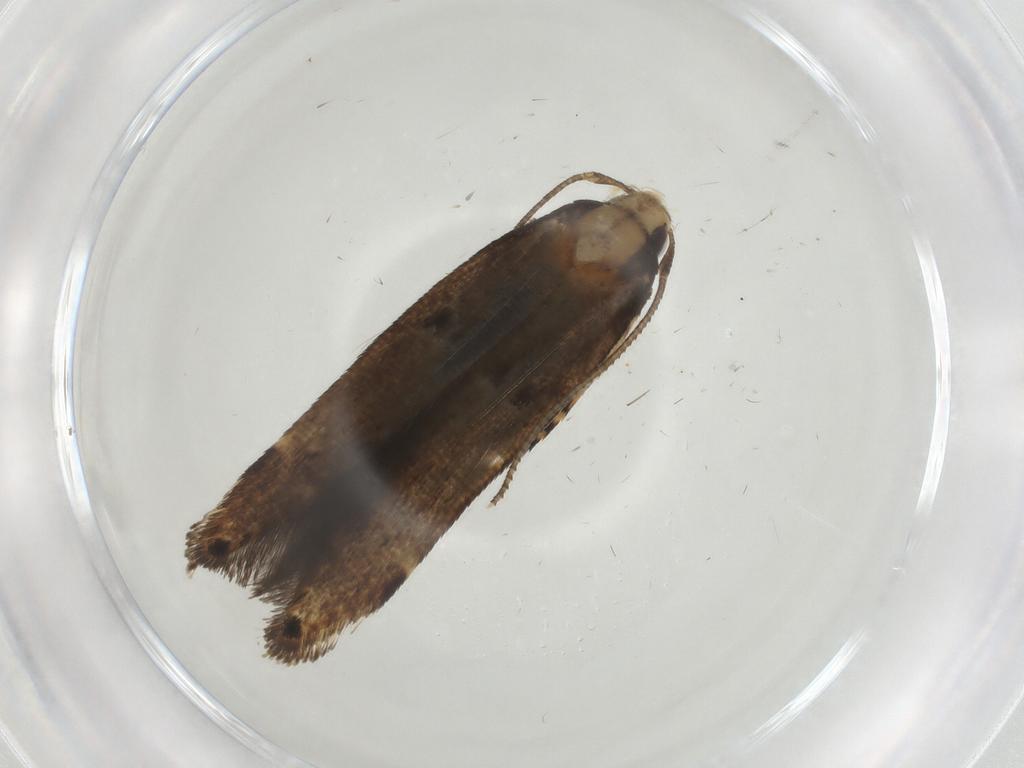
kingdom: Animalia
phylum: Arthropoda
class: Insecta
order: Lepidoptera
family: Cosmopterigidae
